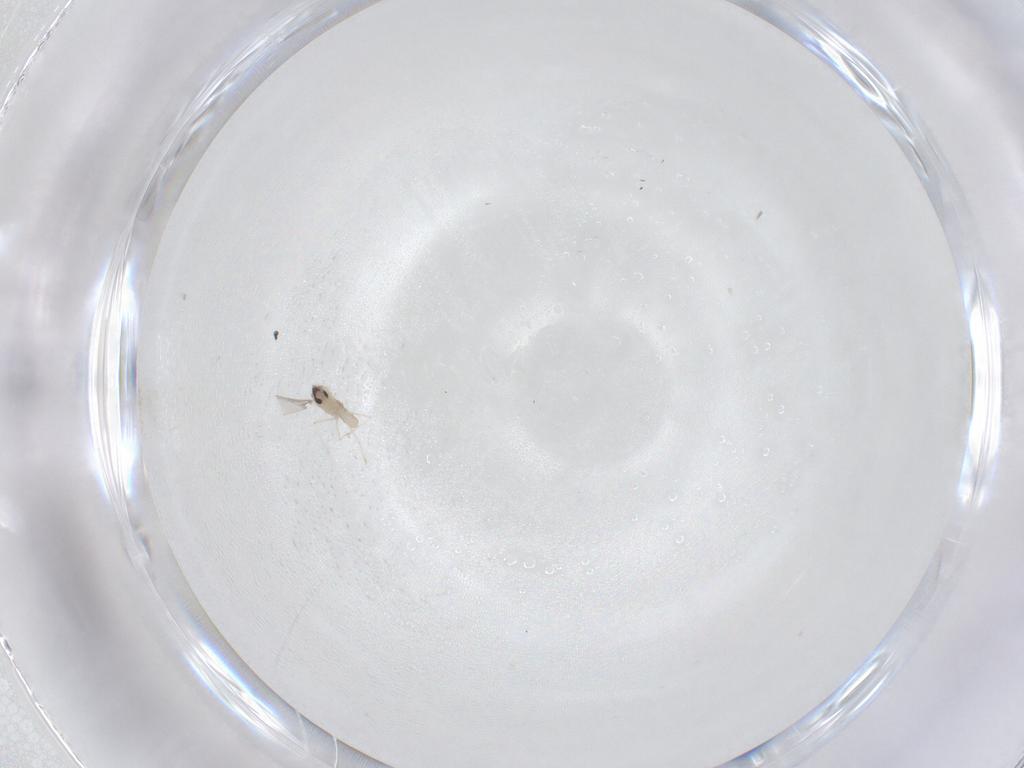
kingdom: Animalia
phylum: Arthropoda
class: Insecta
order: Diptera
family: Cecidomyiidae
